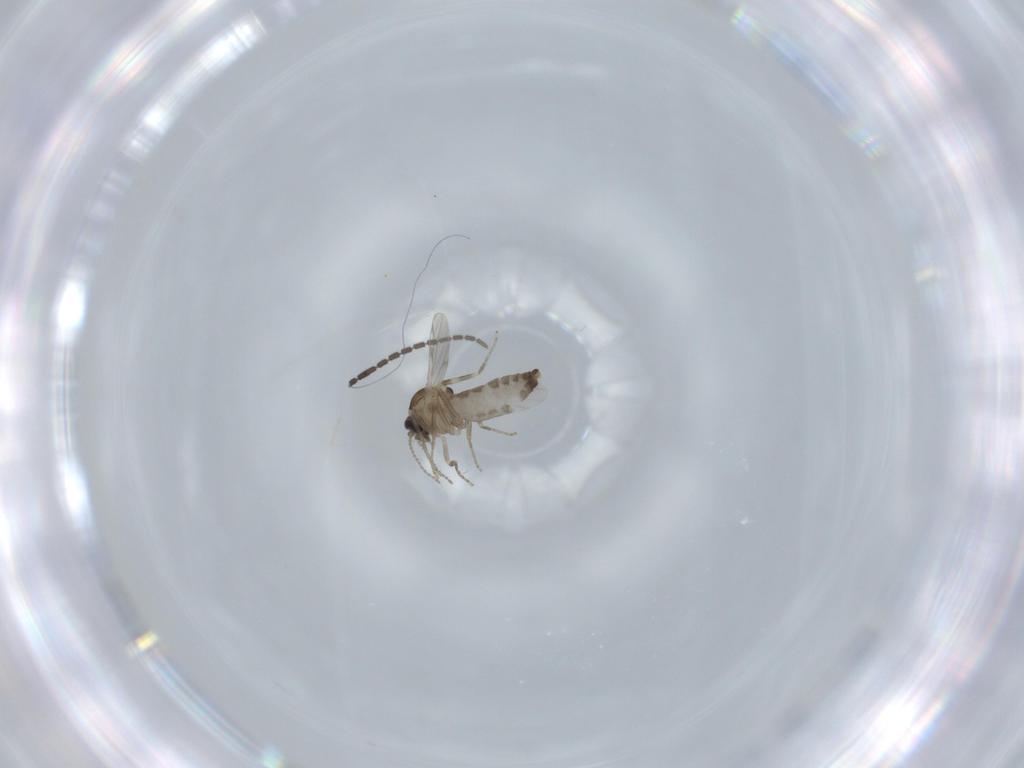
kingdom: Animalia
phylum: Arthropoda
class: Insecta
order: Diptera
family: Ceratopogonidae
